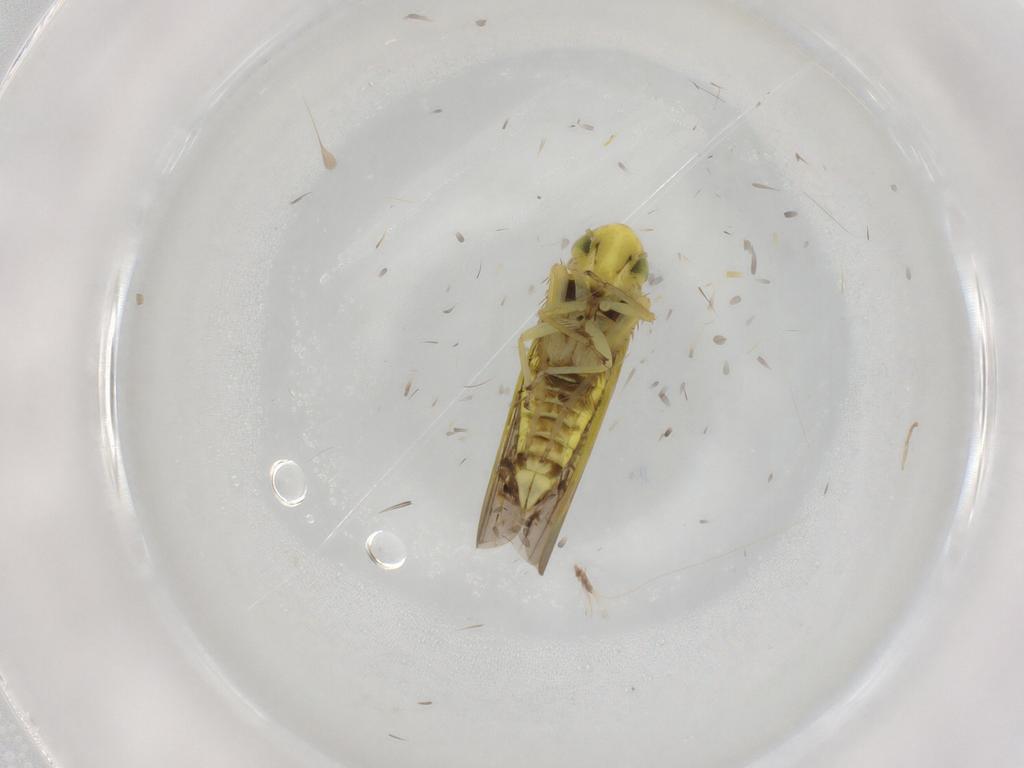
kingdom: Animalia
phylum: Arthropoda
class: Insecta
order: Hemiptera
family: Cicadellidae
